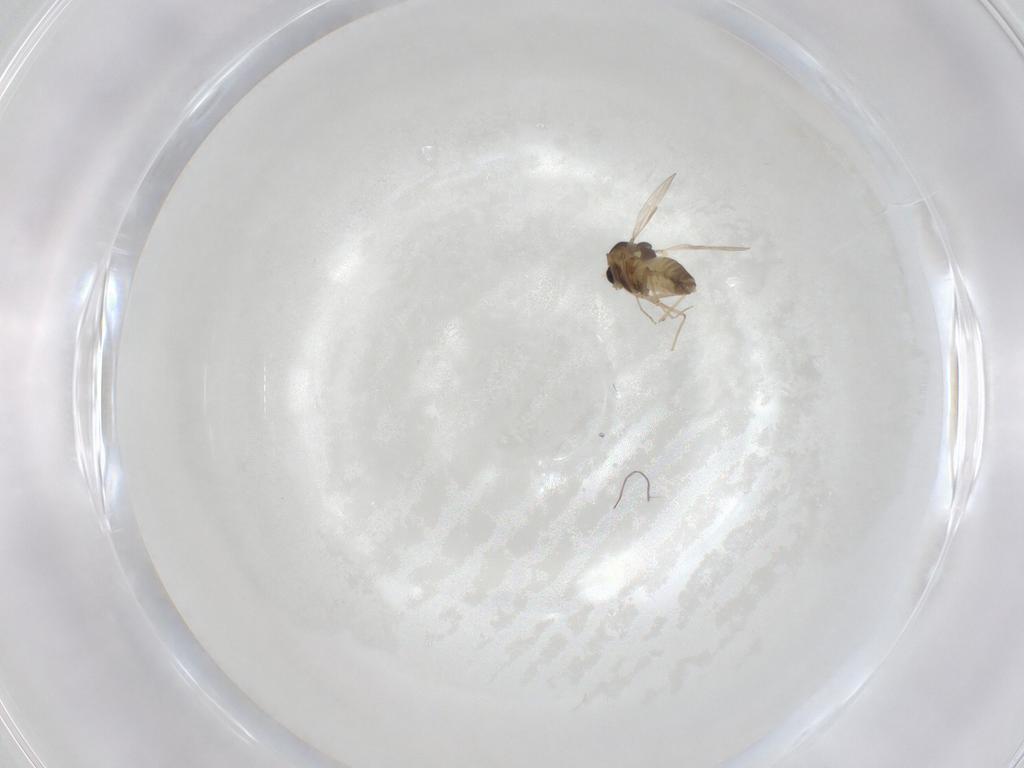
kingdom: Animalia
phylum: Arthropoda
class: Insecta
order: Diptera
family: Chironomidae
